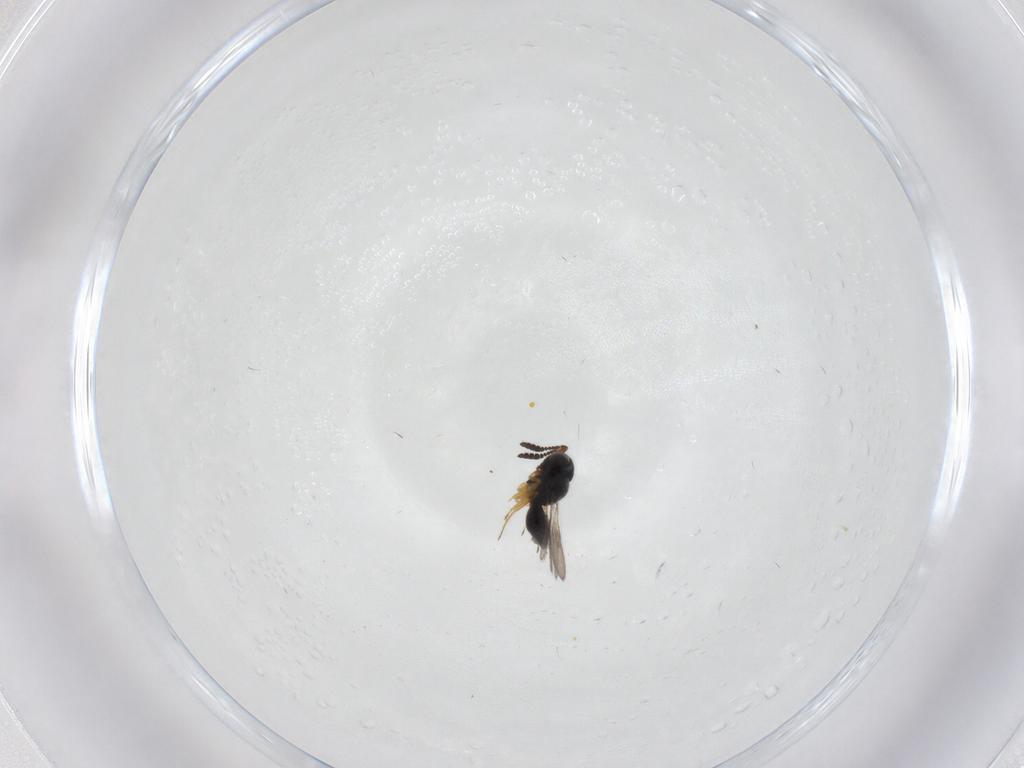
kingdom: Animalia
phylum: Arthropoda
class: Insecta
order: Hymenoptera
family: Scelionidae
